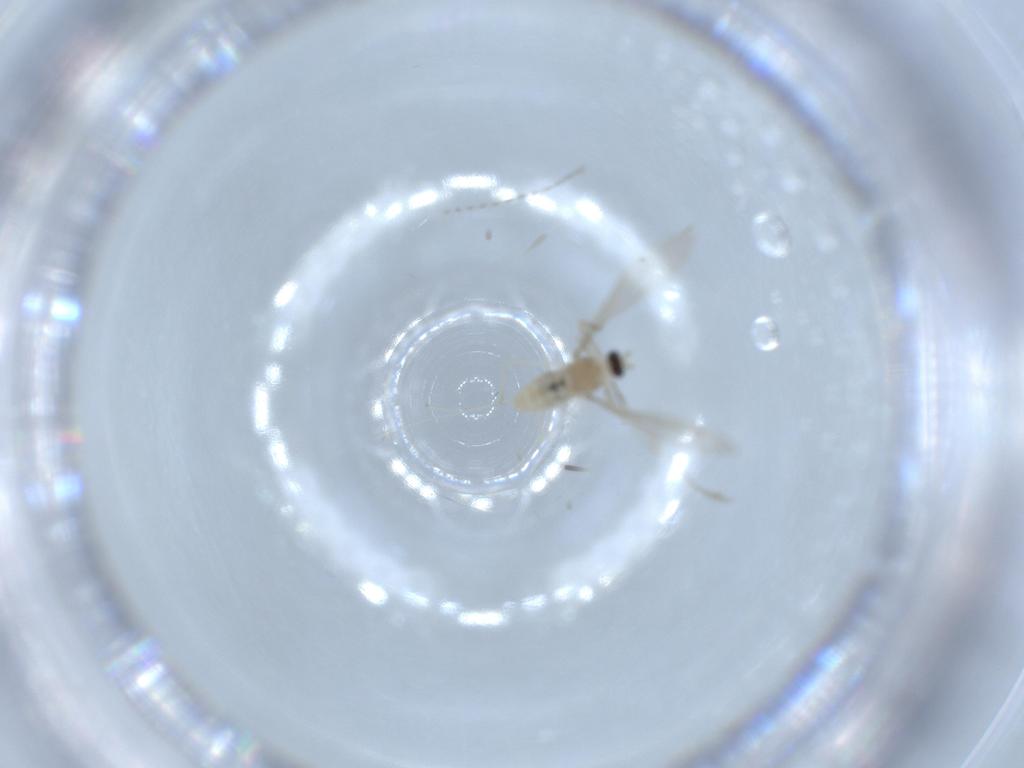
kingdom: Animalia
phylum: Arthropoda
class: Insecta
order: Diptera
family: Cecidomyiidae
